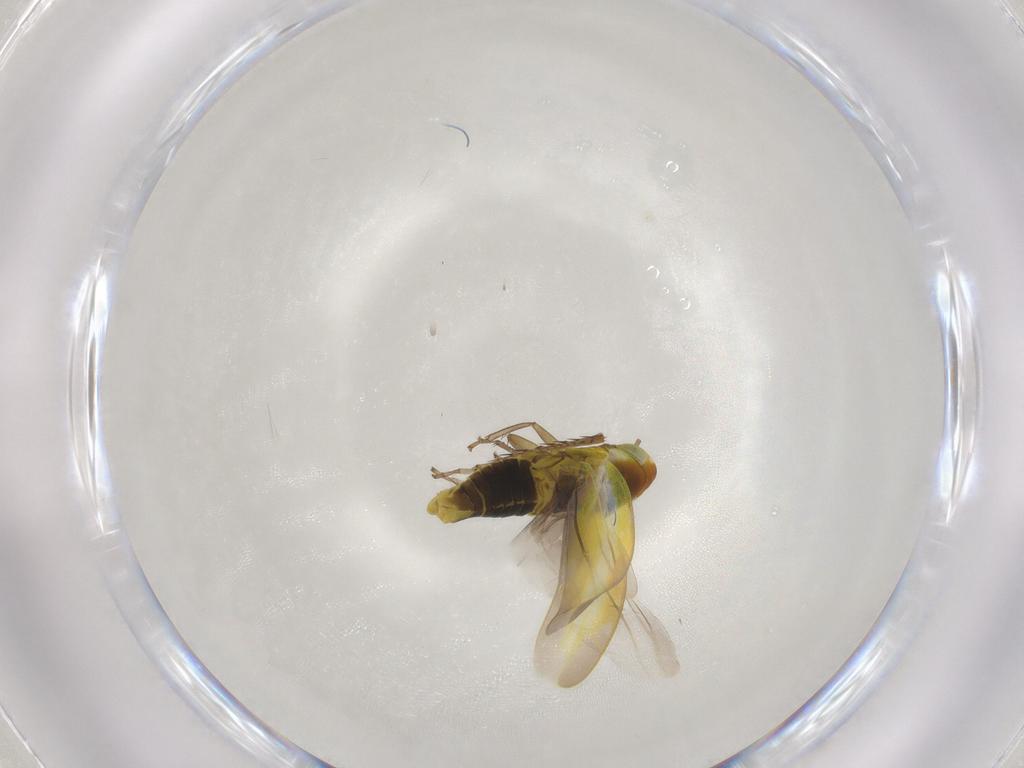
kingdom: Animalia
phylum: Arthropoda
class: Insecta
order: Hemiptera
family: Cicadellidae
